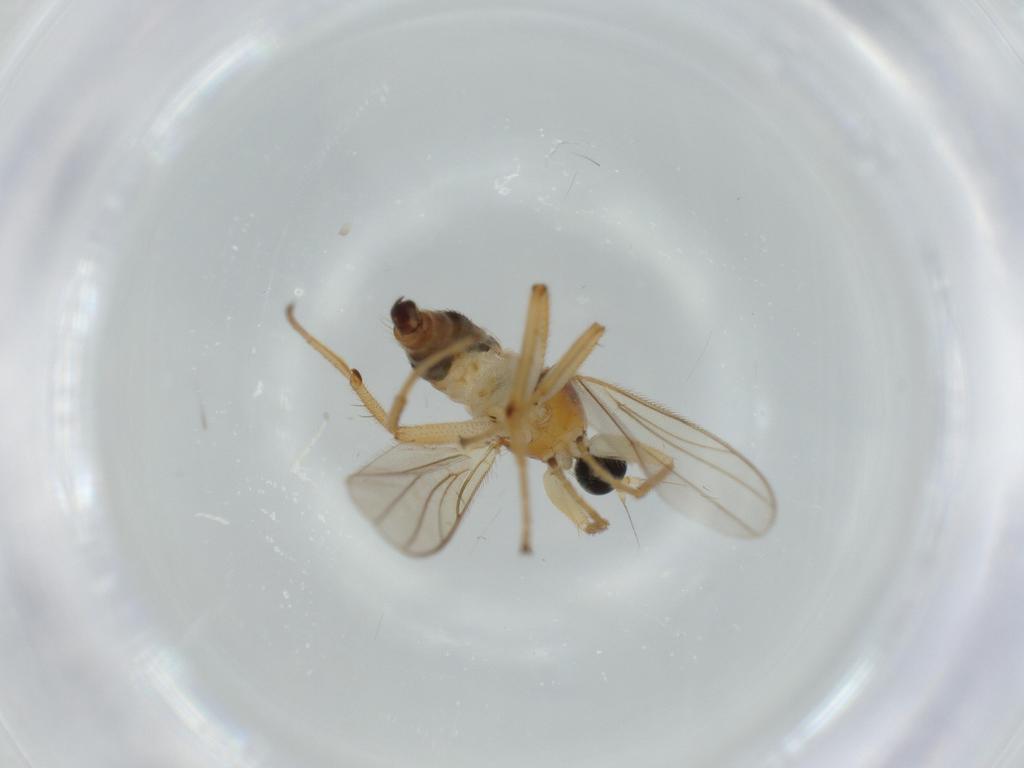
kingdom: Animalia
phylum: Arthropoda
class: Insecta
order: Diptera
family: Hybotidae
